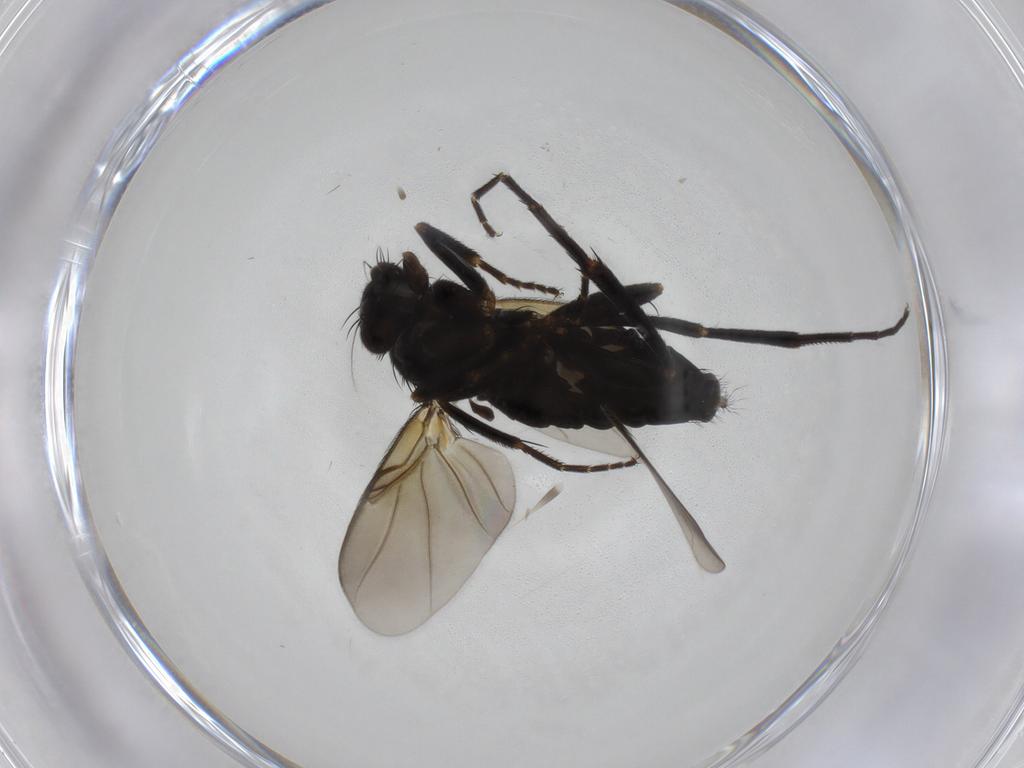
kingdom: Animalia
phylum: Arthropoda
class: Insecta
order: Diptera
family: Phoridae
